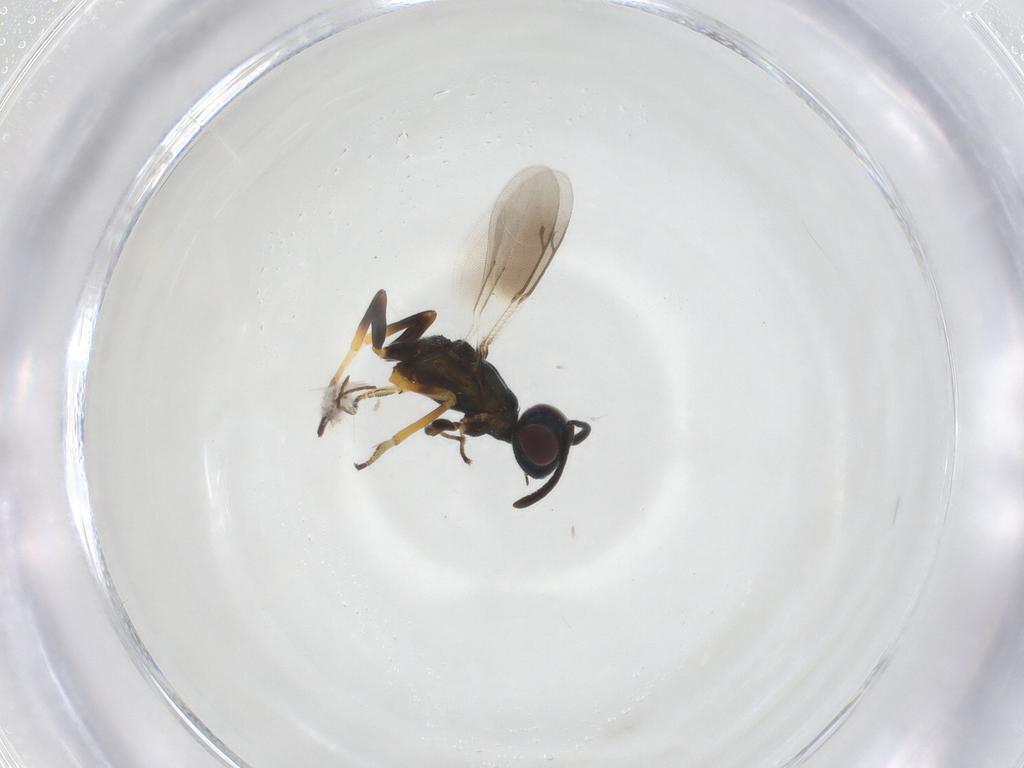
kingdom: Animalia
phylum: Arthropoda
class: Insecta
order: Hymenoptera
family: Ichneumonidae
